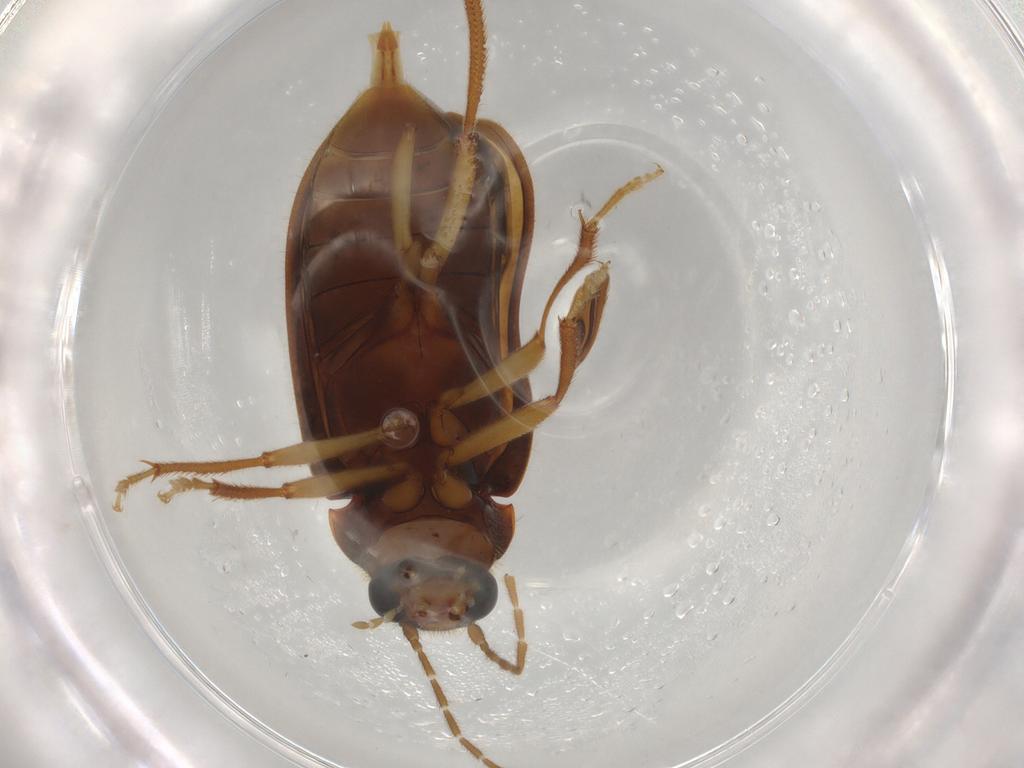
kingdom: Animalia
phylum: Arthropoda
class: Insecta
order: Coleoptera
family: Ptilodactylidae
